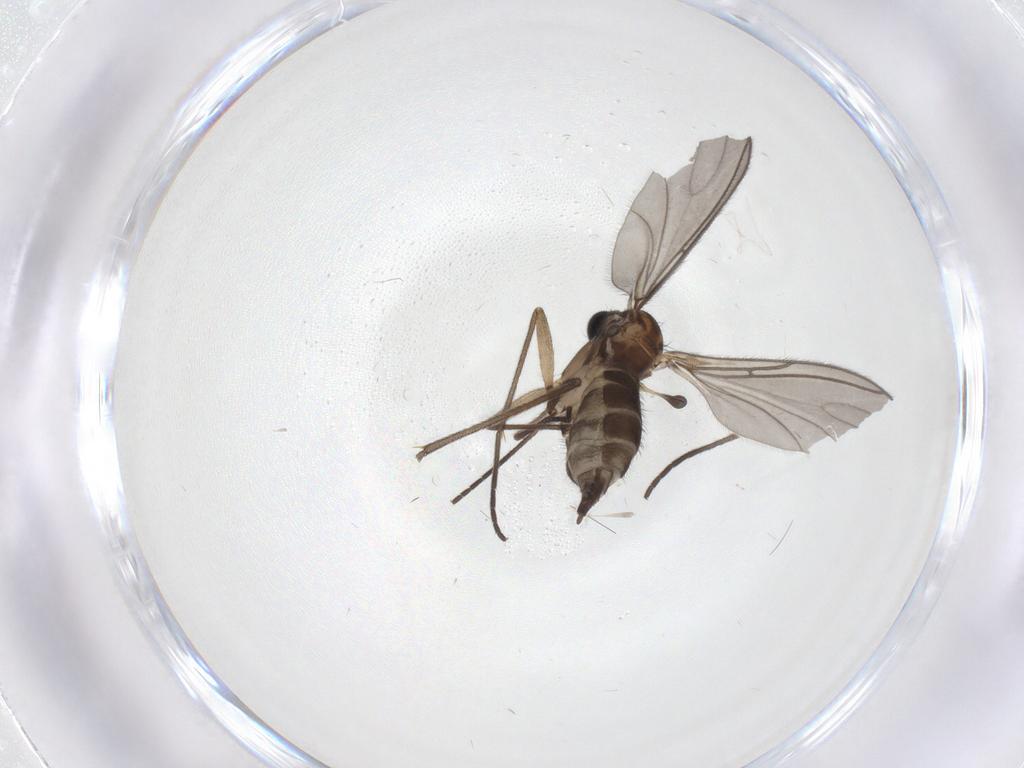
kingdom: Animalia
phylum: Arthropoda
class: Insecta
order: Diptera
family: Sciaridae
